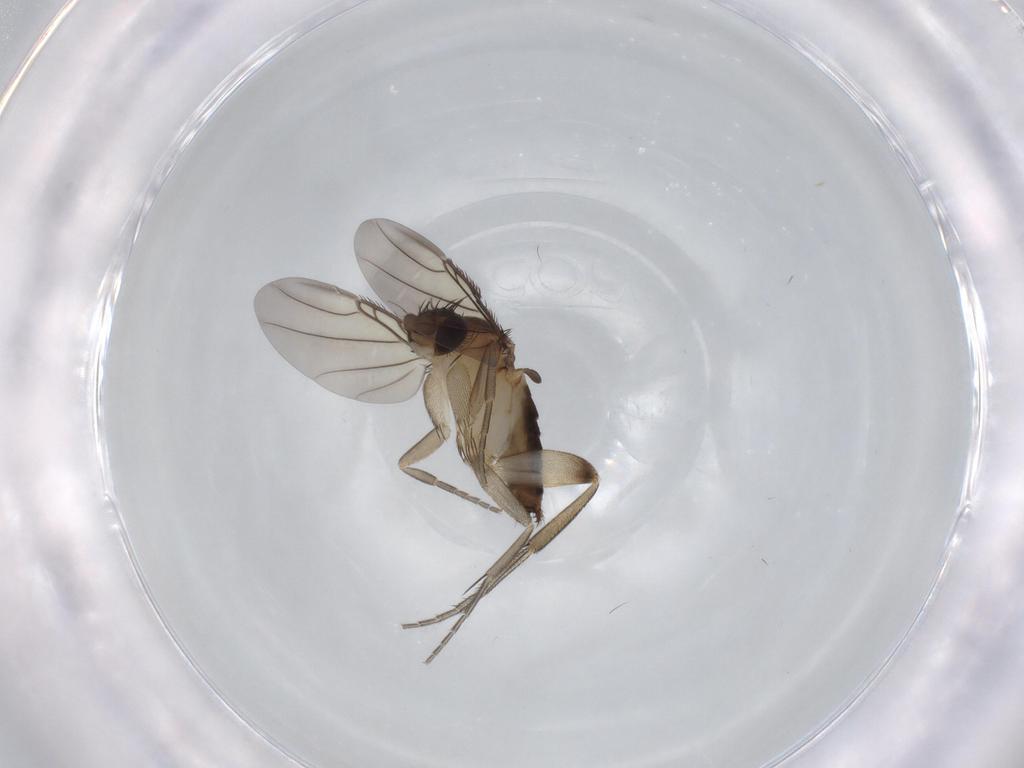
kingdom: Animalia
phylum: Arthropoda
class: Insecta
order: Diptera
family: Phoridae
